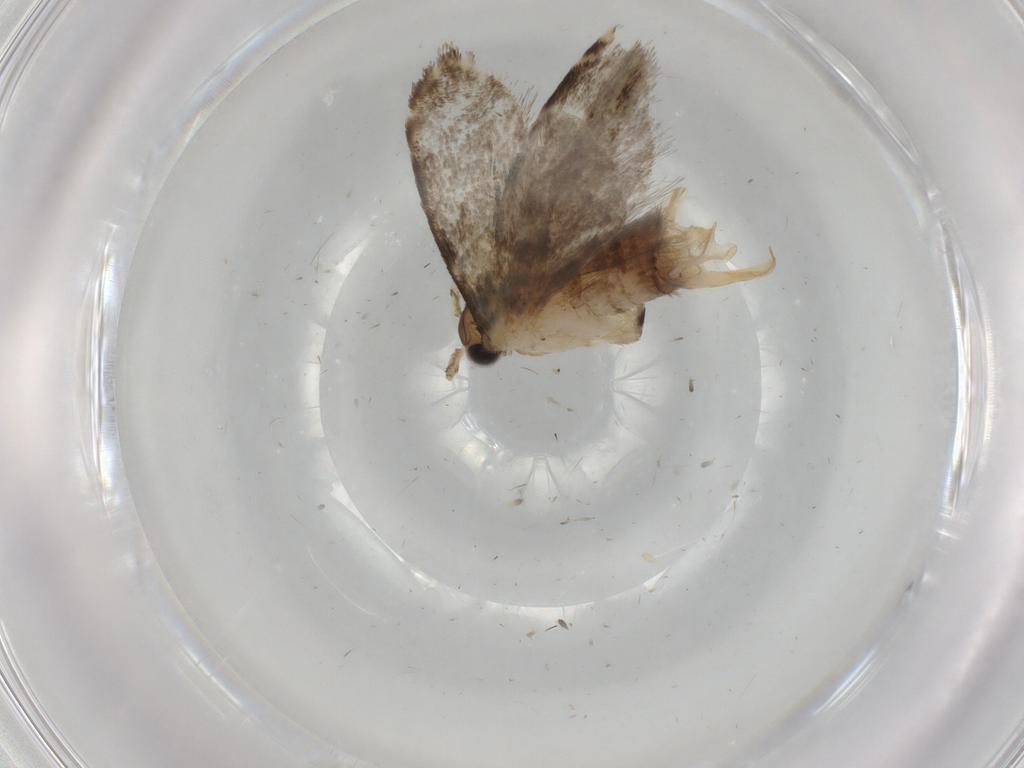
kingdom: Animalia
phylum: Arthropoda
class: Insecta
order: Lepidoptera
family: Tineidae
